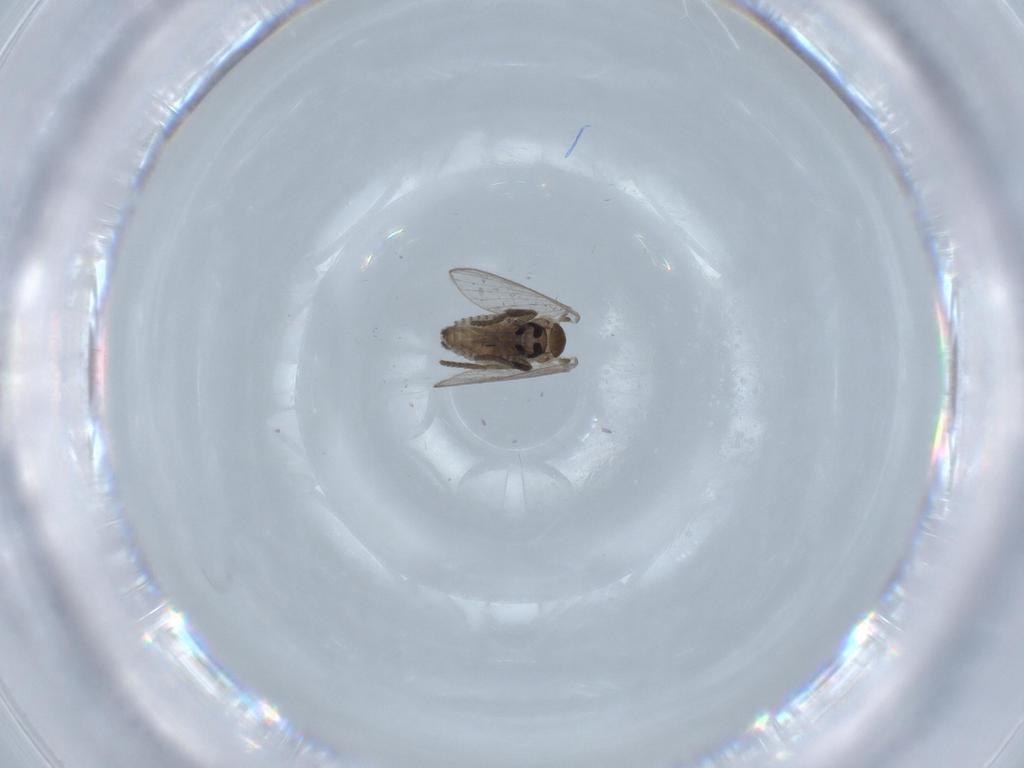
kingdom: Animalia
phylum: Arthropoda
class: Insecta
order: Diptera
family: Psychodidae
